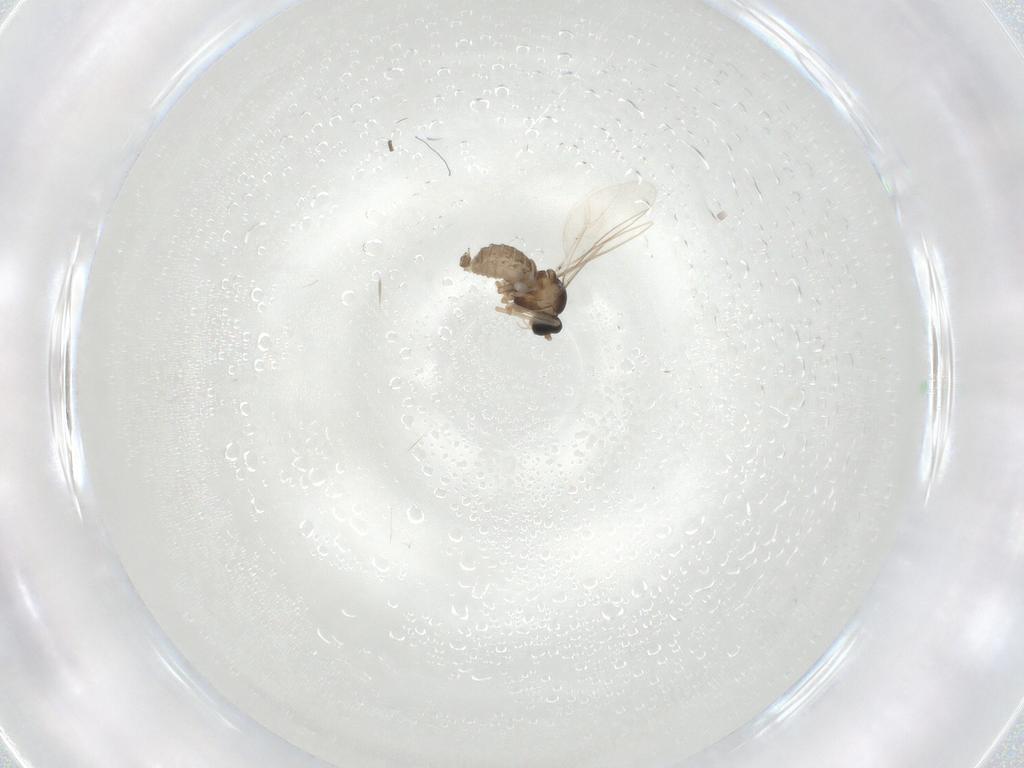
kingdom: Animalia
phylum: Arthropoda
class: Insecta
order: Diptera
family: Cecidomyiidae
